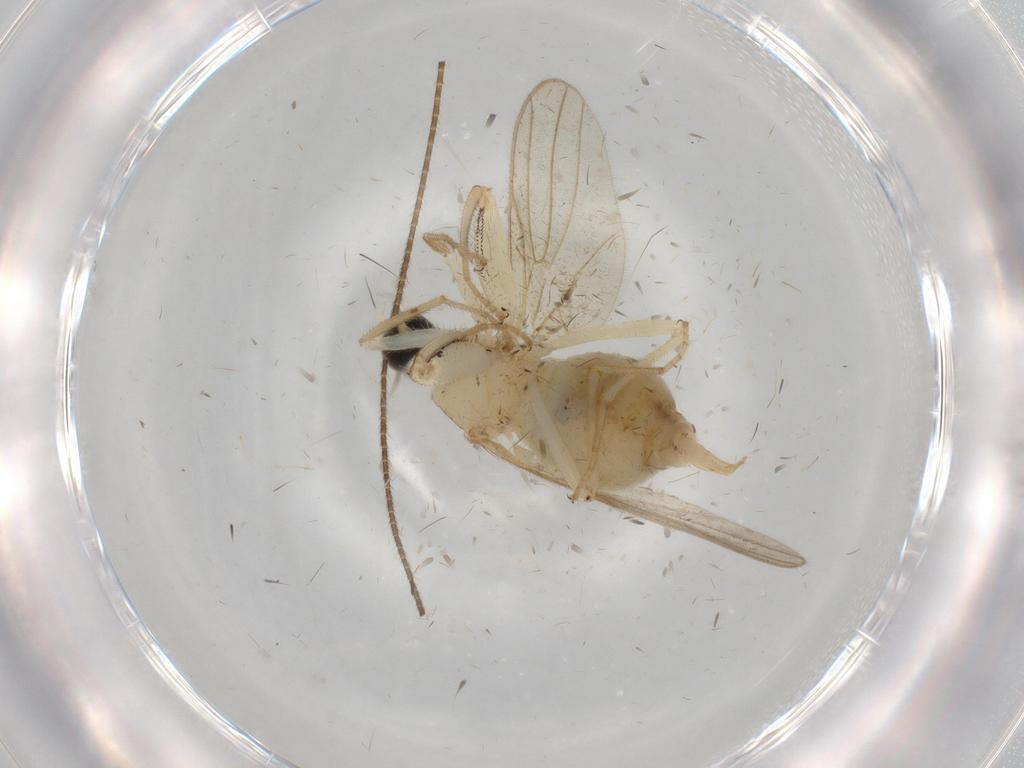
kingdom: Animalia
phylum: Arthropoda
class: Insecta
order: Diptera
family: Hybotidae
